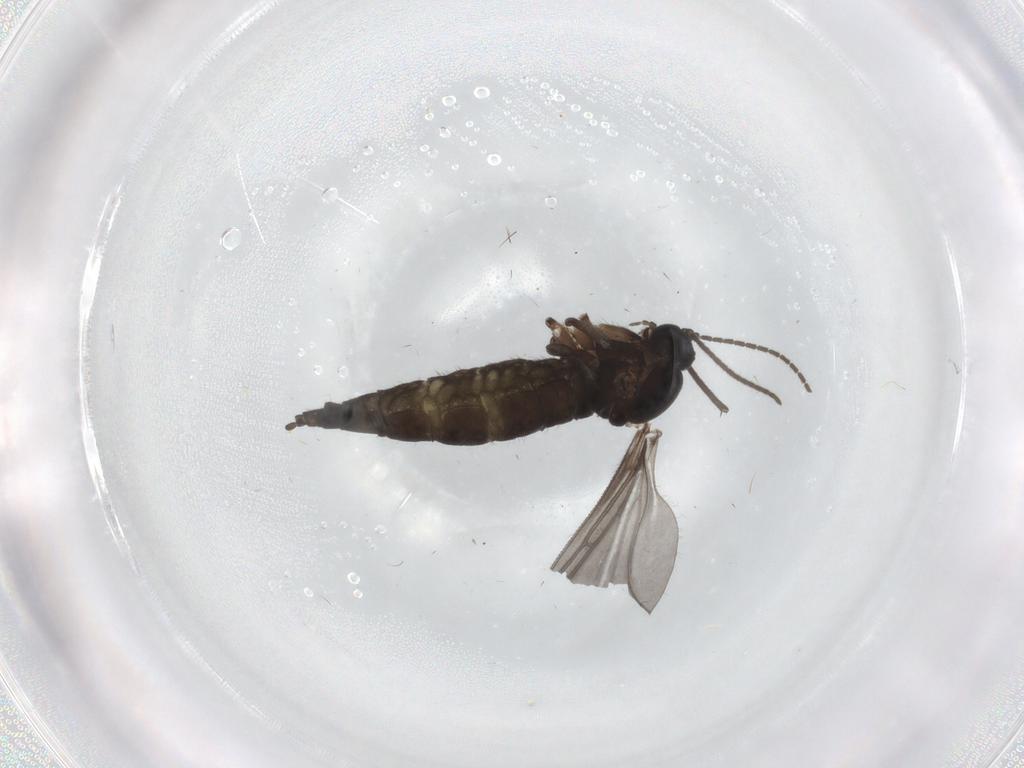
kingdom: Animalia
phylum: Arthropoda
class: Insecta
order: Diptera
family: Sciaridae
